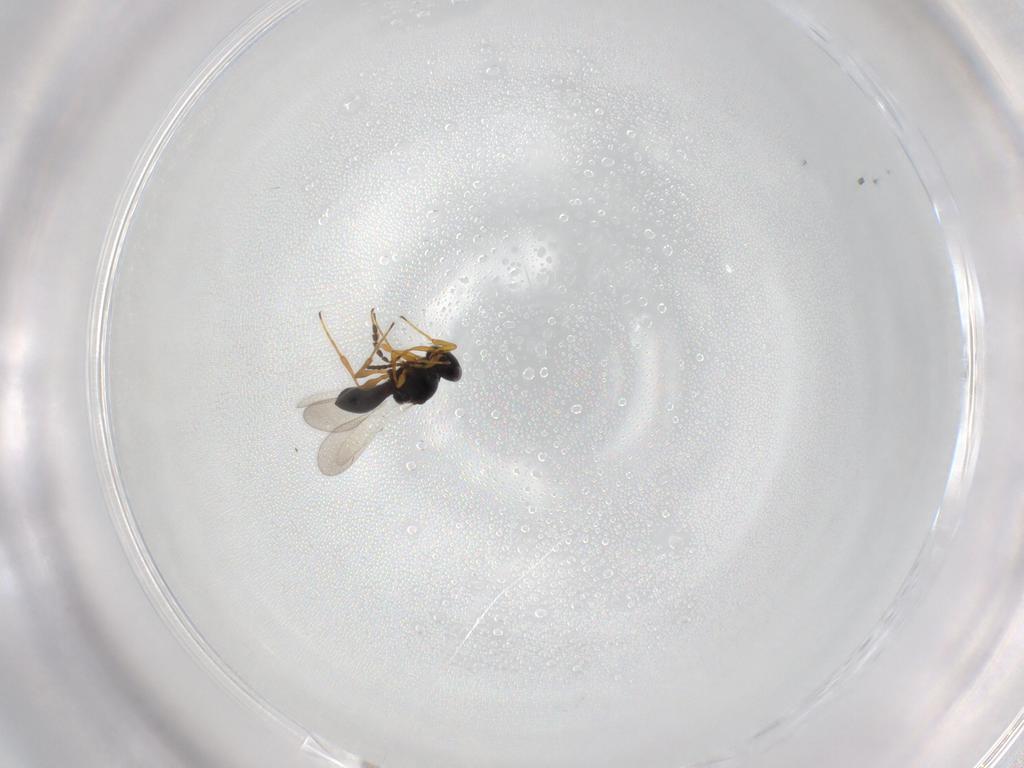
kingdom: Animalia
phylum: Arthropoda
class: Insecta
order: Hymenoptera
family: Platygastridae
